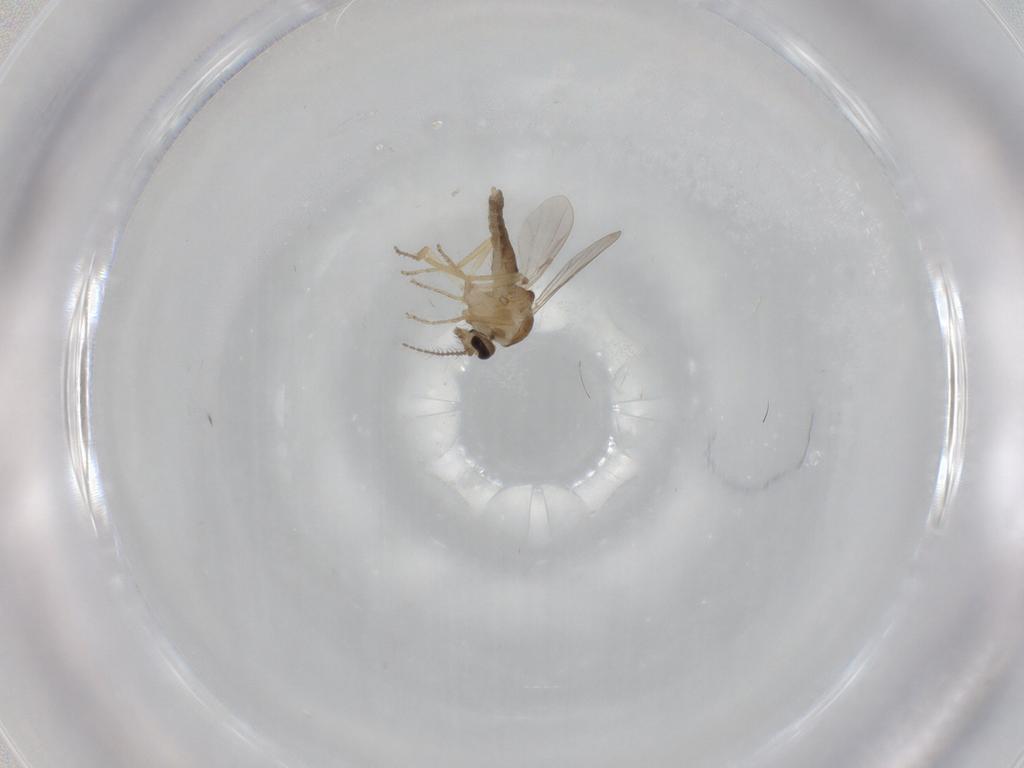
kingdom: Animalia
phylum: Arthropoda
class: Insecta
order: Diptera
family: Ceratopogonidae
